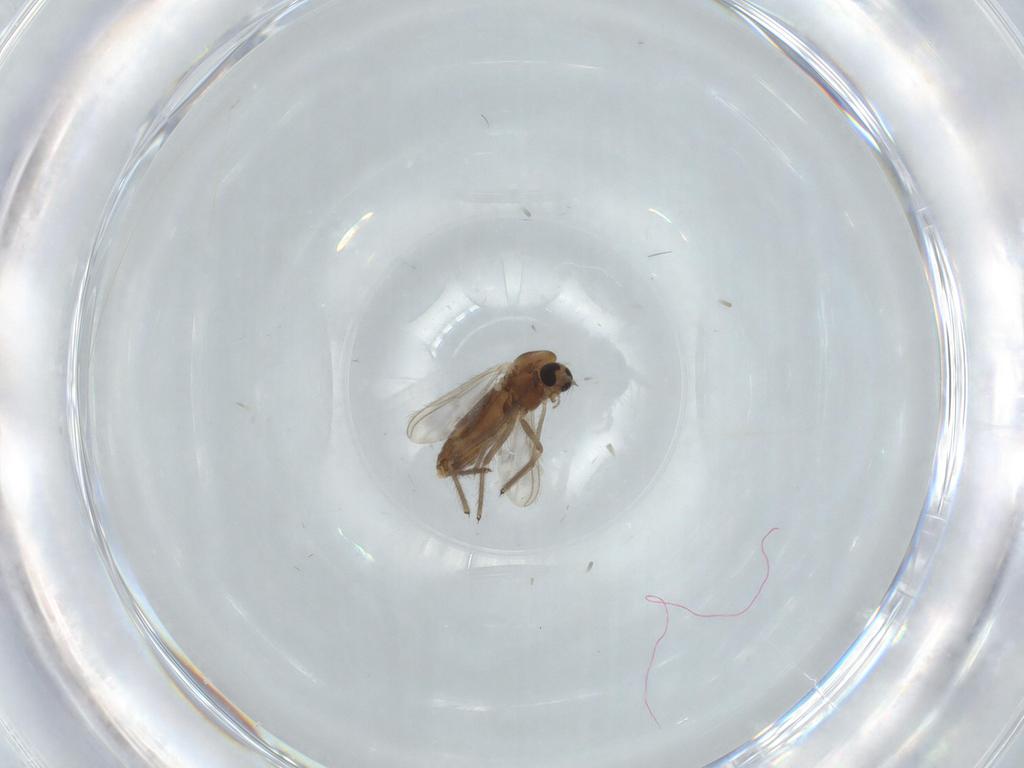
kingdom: Animalia
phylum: Arthropoda
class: Insecta
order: Diptera
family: Chironomidae
